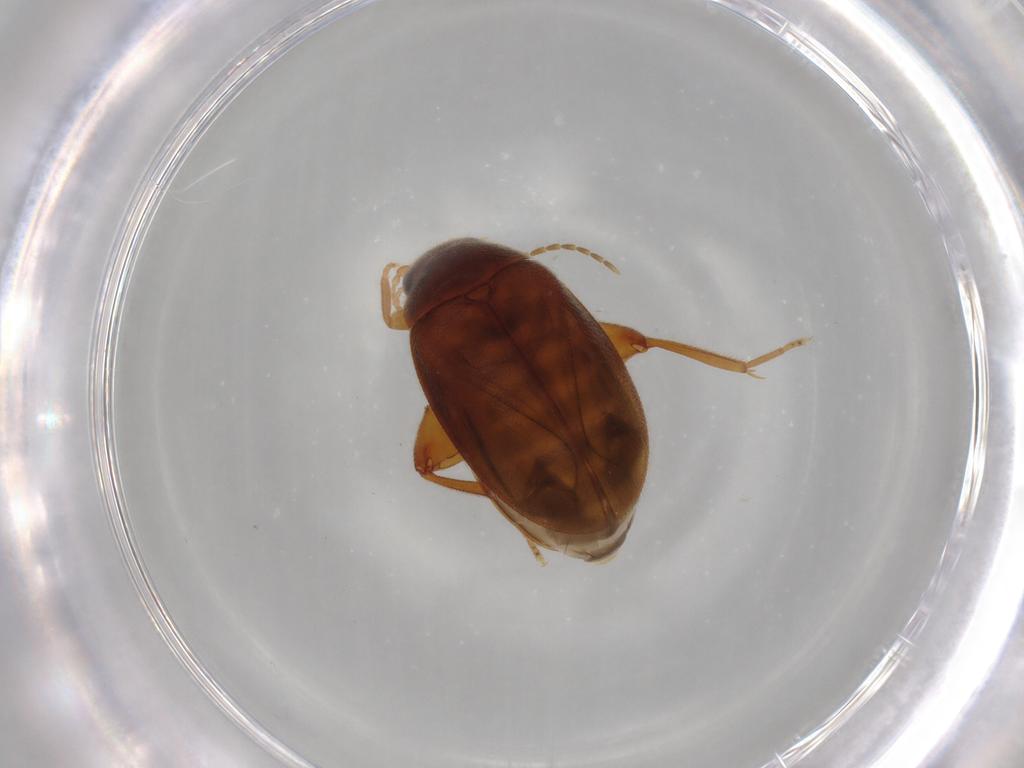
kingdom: Animalia
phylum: Arthropoda
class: Insecta
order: Coleoptera
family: Scirtidae
